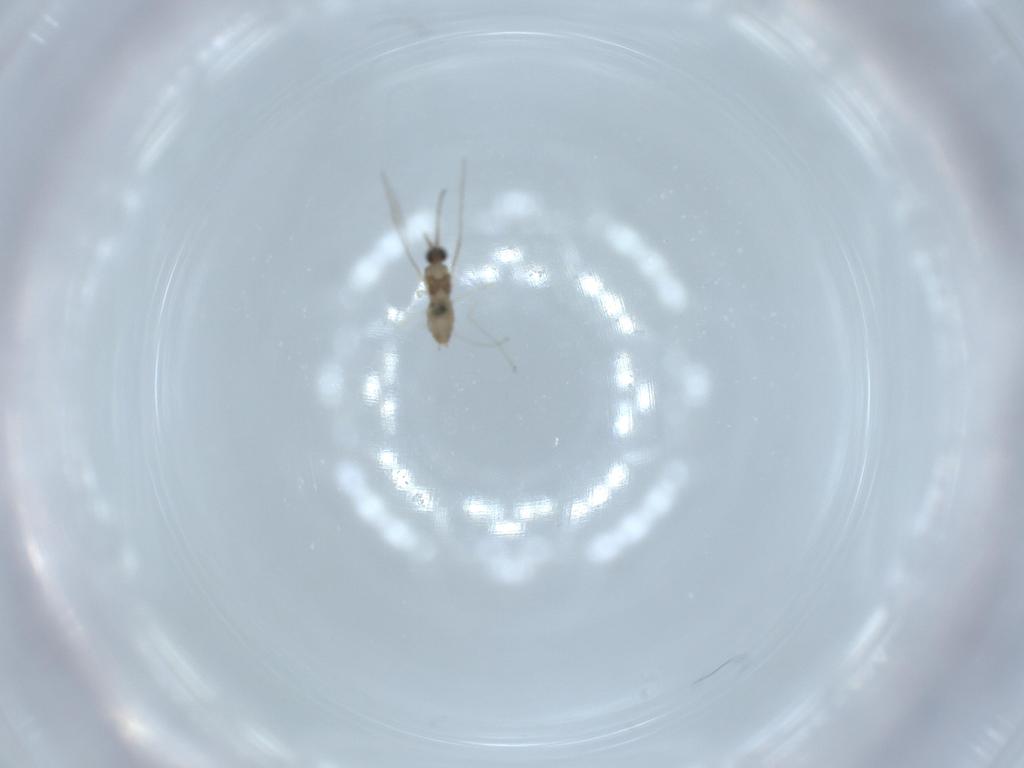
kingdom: Animalia
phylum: Arthropoda
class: Insecta
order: Diptera
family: Cecidomyiidae
